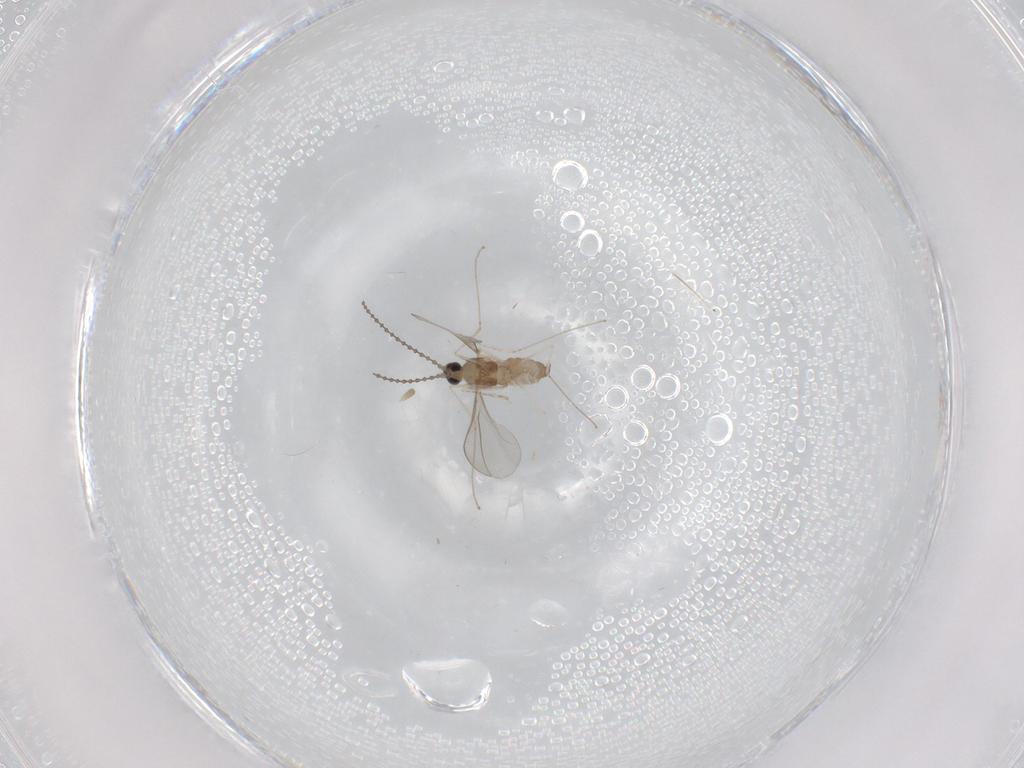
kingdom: Animalia
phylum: Arthropoda
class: Insecta
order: Diptera
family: Cecidomyiidae
